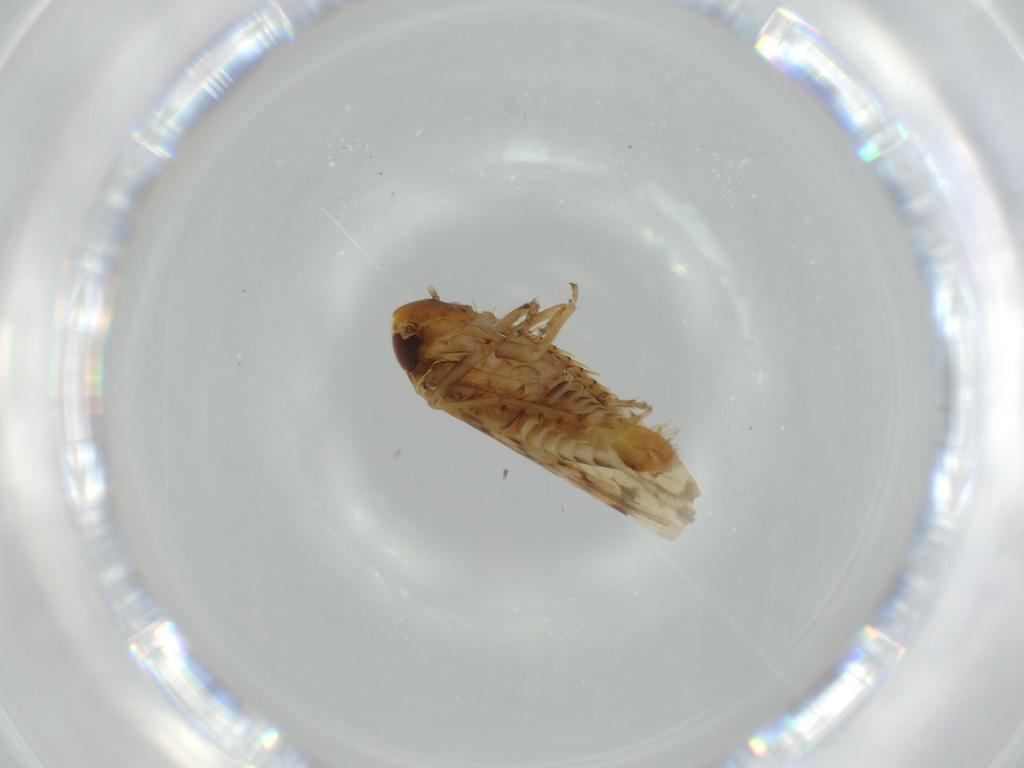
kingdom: Animalia
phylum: Arthropoda
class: Insecta
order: Hemiptera
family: Cicadellidae
